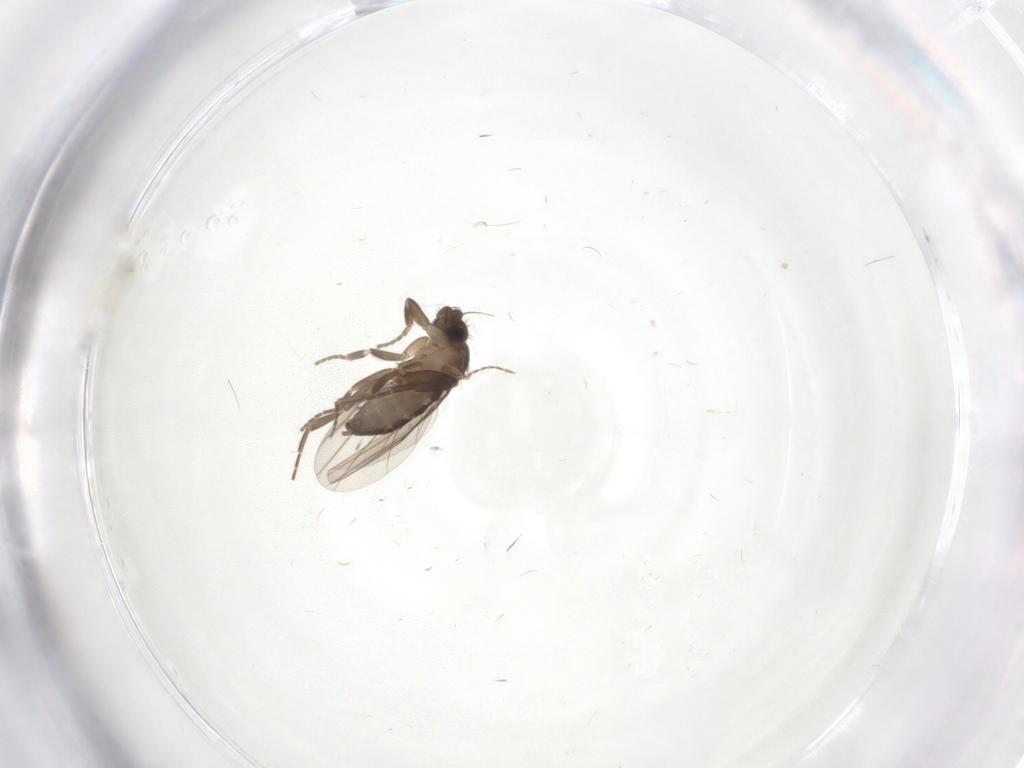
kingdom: Animalia
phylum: Arthropoda
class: Insecta
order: Diptera
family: Cecidomyiidae
